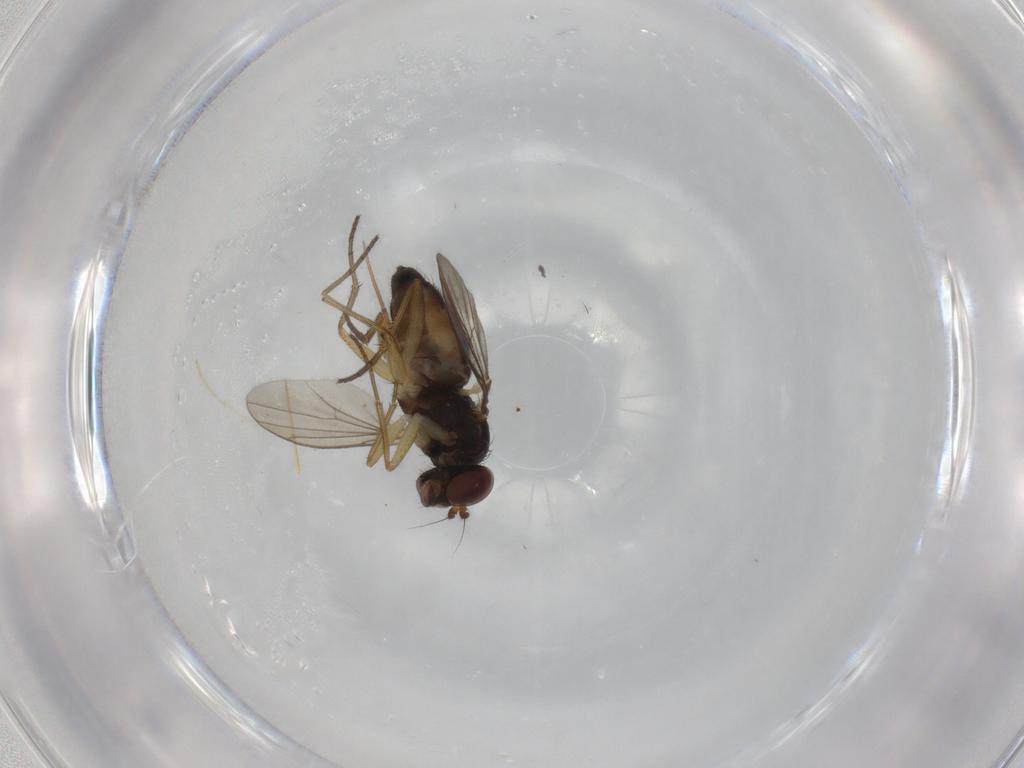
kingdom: Animalia
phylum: Arthropoda
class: Insecta
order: Diptera
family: Dolichopodidae
